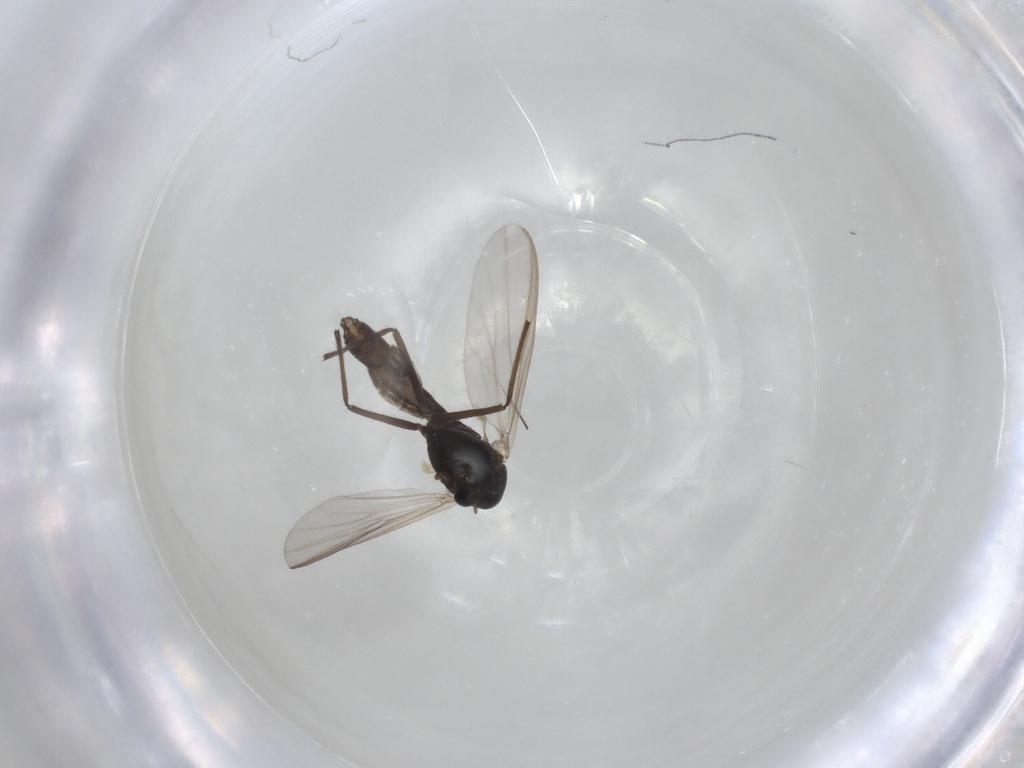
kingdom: Animalia
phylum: Arthropoda
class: Insecta
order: Diptera
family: Chironomidae
